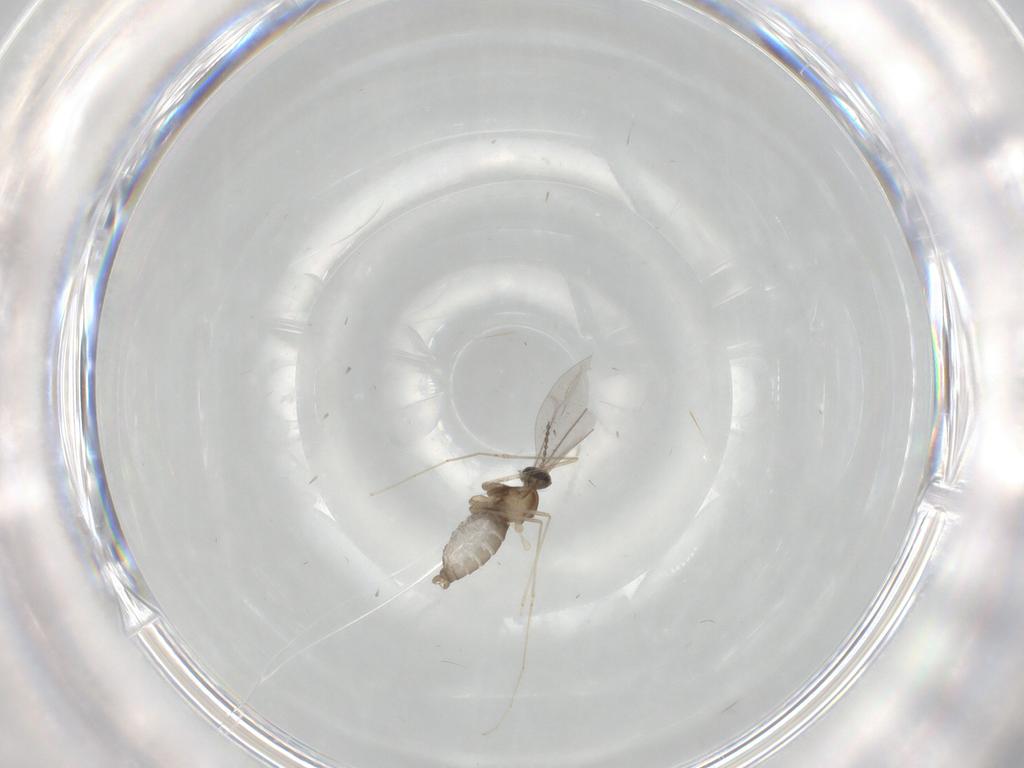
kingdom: Animalia
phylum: Arthropoda
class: Insecta
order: Diptera
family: Cecidomyiidae
